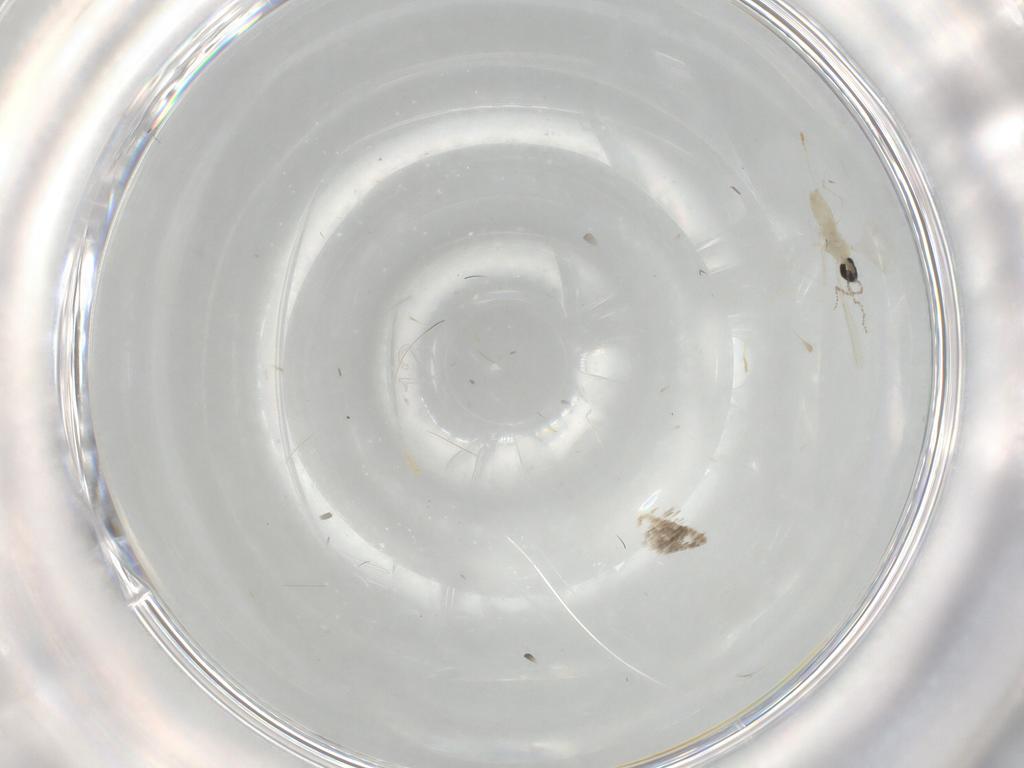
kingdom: Animalia
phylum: Arthropoda
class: Insecta
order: Diptera
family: Cecidomyiidae
